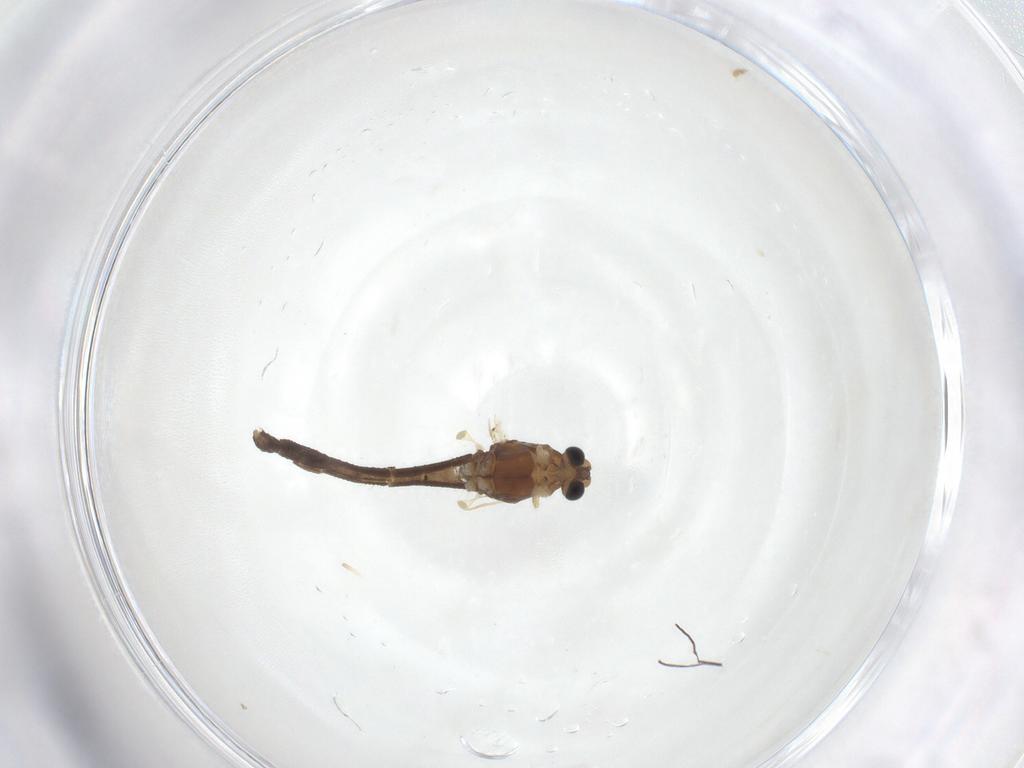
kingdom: Animalia
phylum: Arthropoda
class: Insecta
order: Diptera
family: Chironomidae
